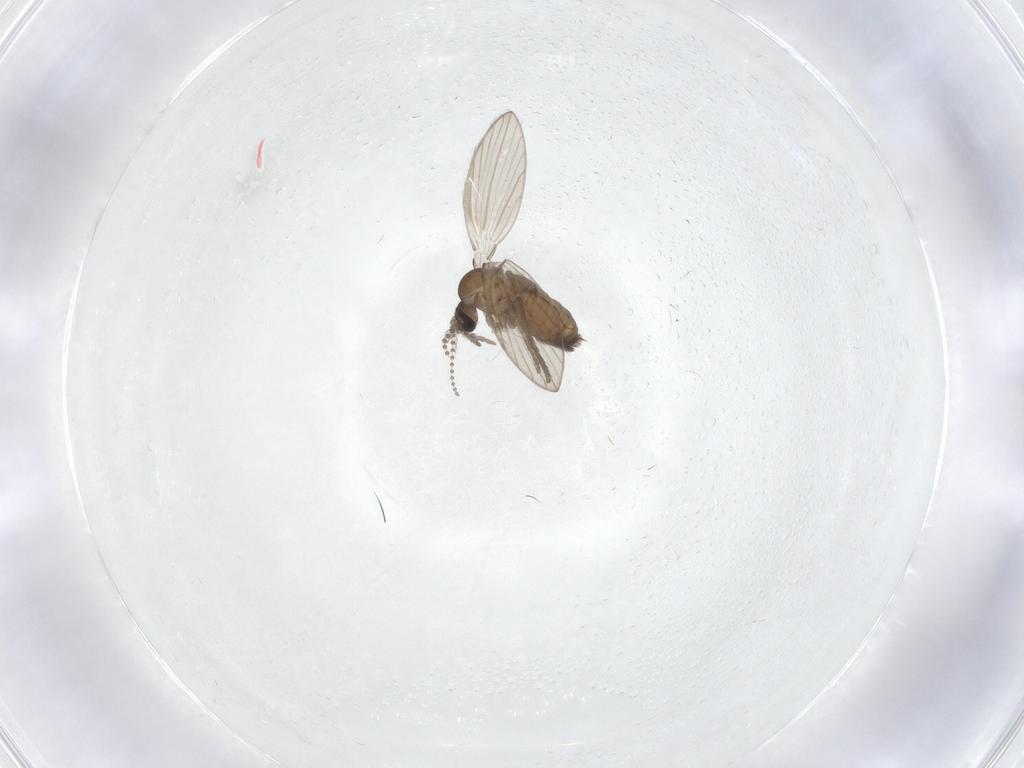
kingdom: Animalia
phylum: Arthropoda
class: Insecta
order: Diptera
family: Psychodidae
